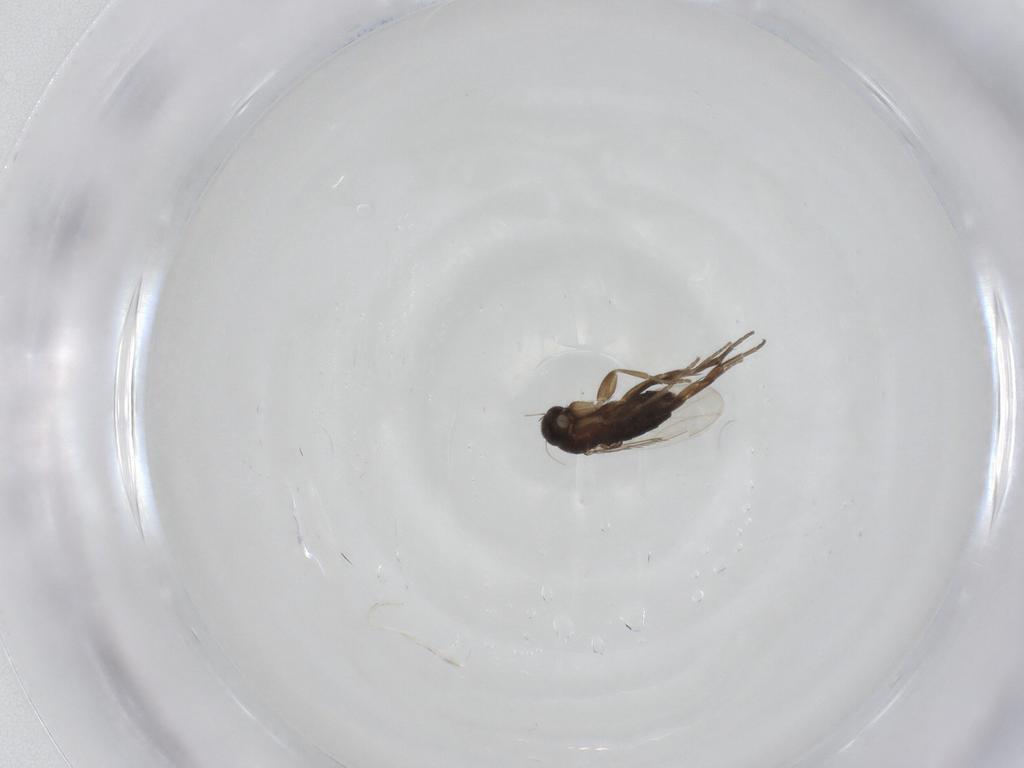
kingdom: Animalia
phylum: Arthropoda
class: Insecta
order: Diptera
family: Phoridae
